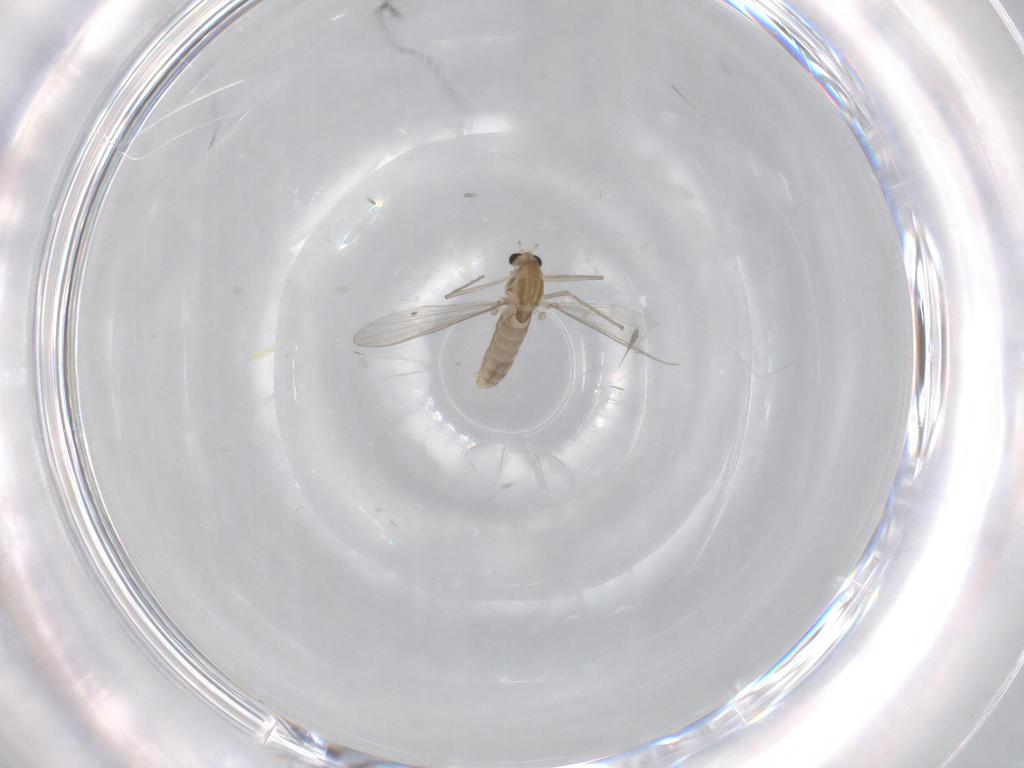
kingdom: Animalia
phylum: Arthropoda
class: Insecta
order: Diptera
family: Chironomidae
